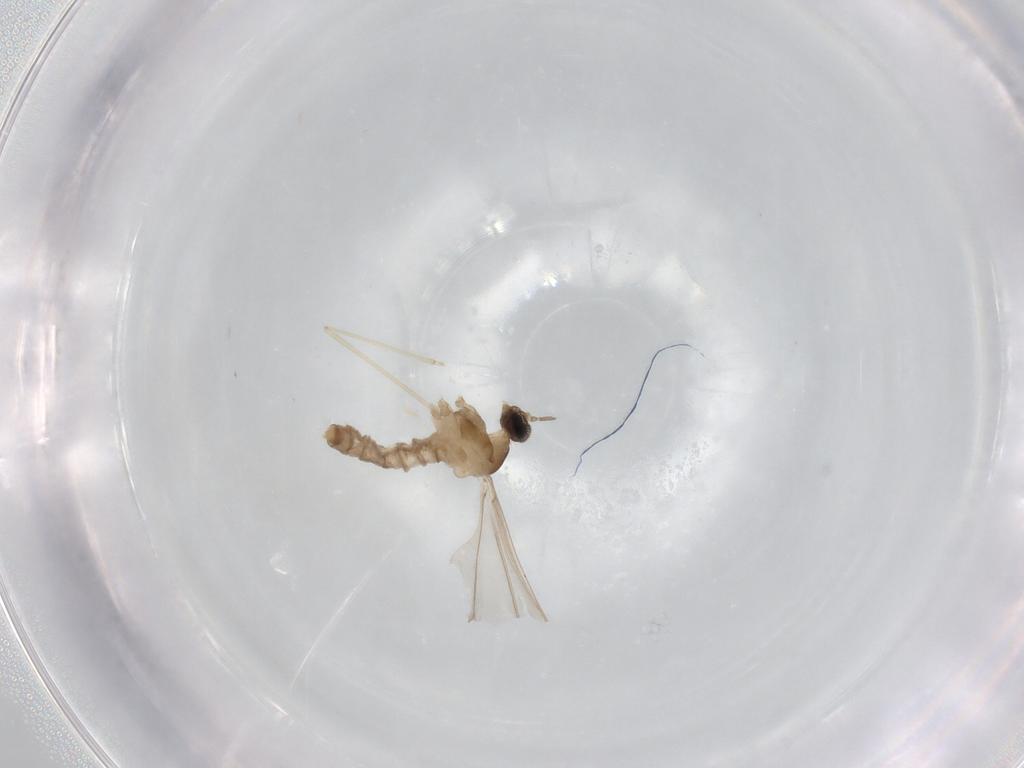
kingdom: Animalia
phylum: Arthropoda
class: Insecta
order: Diptera
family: Cecidomyiidae
